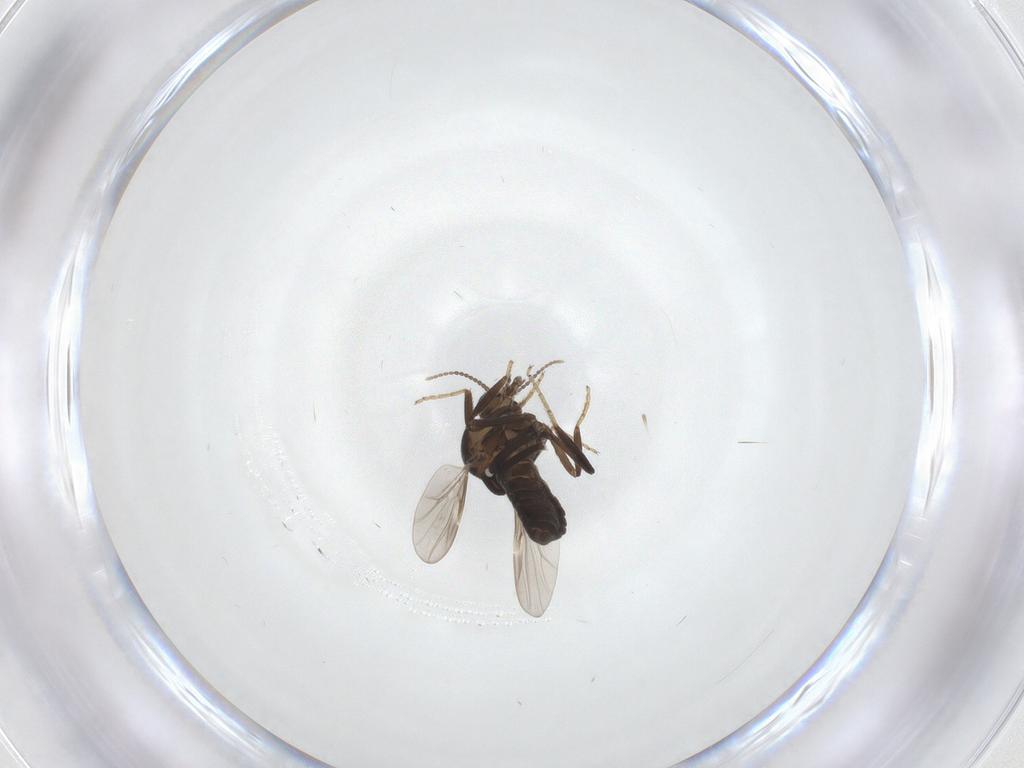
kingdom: Animalia
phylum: Arthropoda
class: Insecta
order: Diptera
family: Ceratopogonidae
